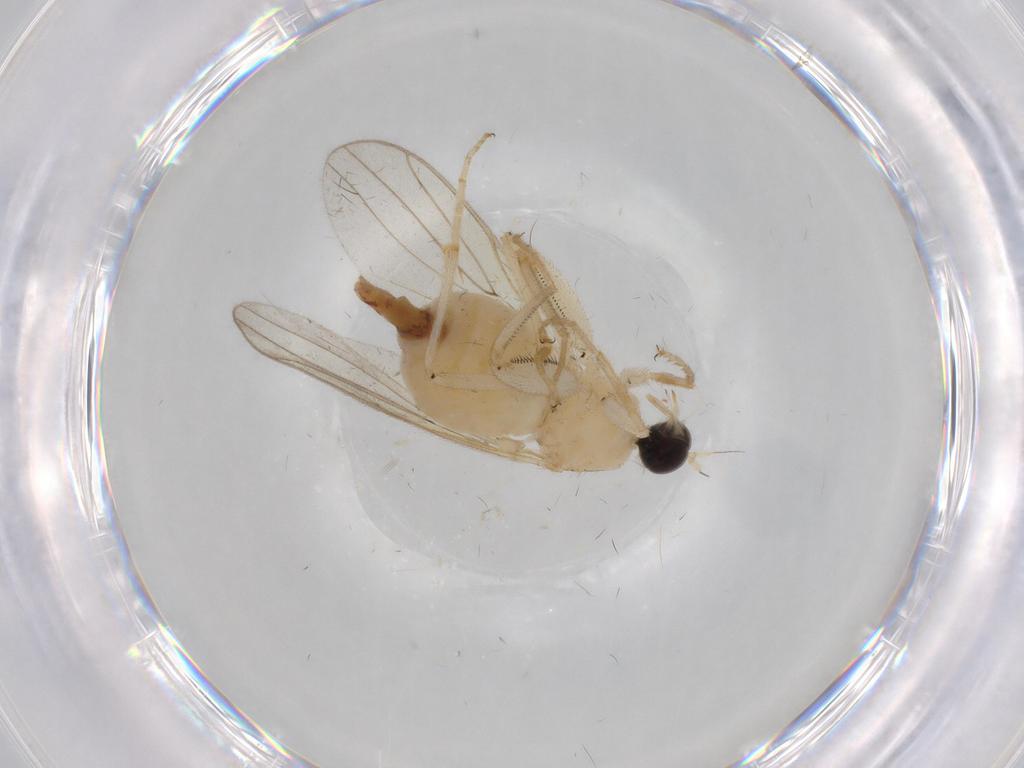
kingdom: Animalia
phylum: Arthropoda
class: Insecta
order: Diptera
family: Hybotidae
